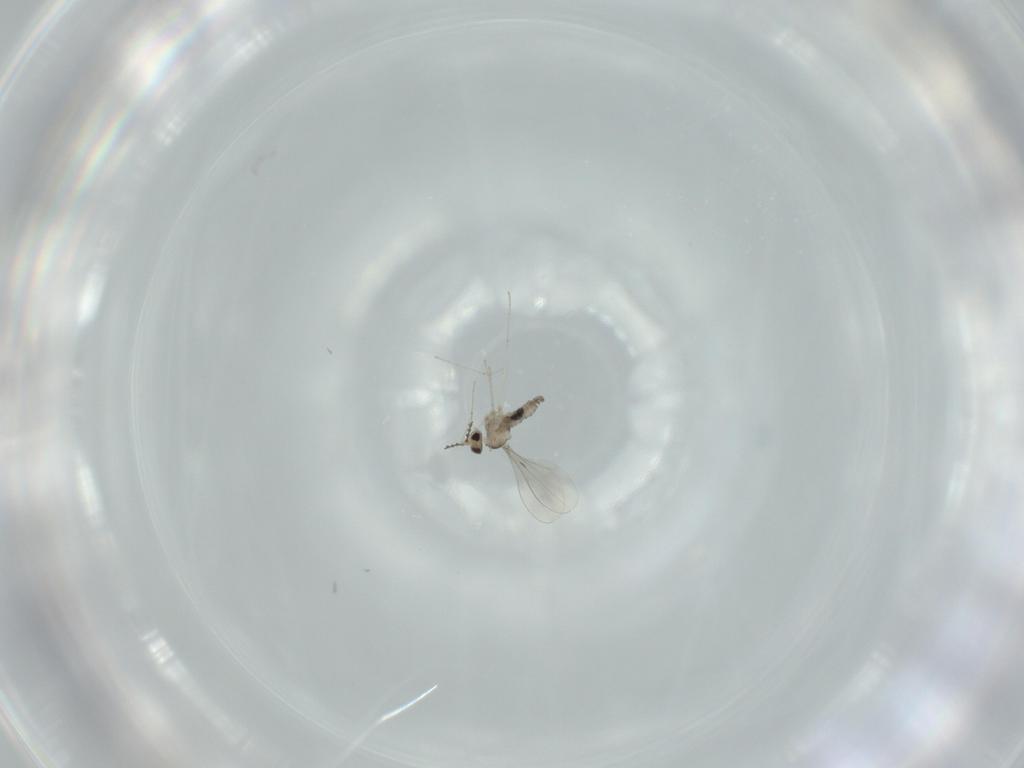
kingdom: Animalia
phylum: Arthropoda
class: Insecta
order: Diptera
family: Cecidomyiidae
